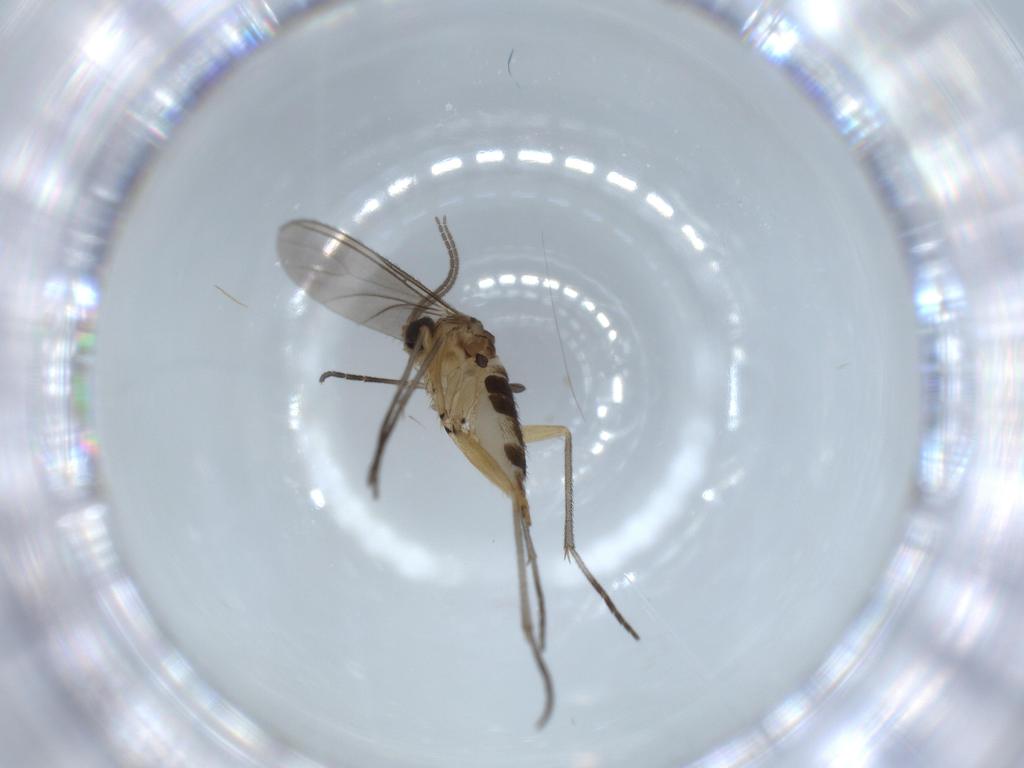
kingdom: Animalia
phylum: Arthropoda
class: Insecta
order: Diptera
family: Sciaridae
